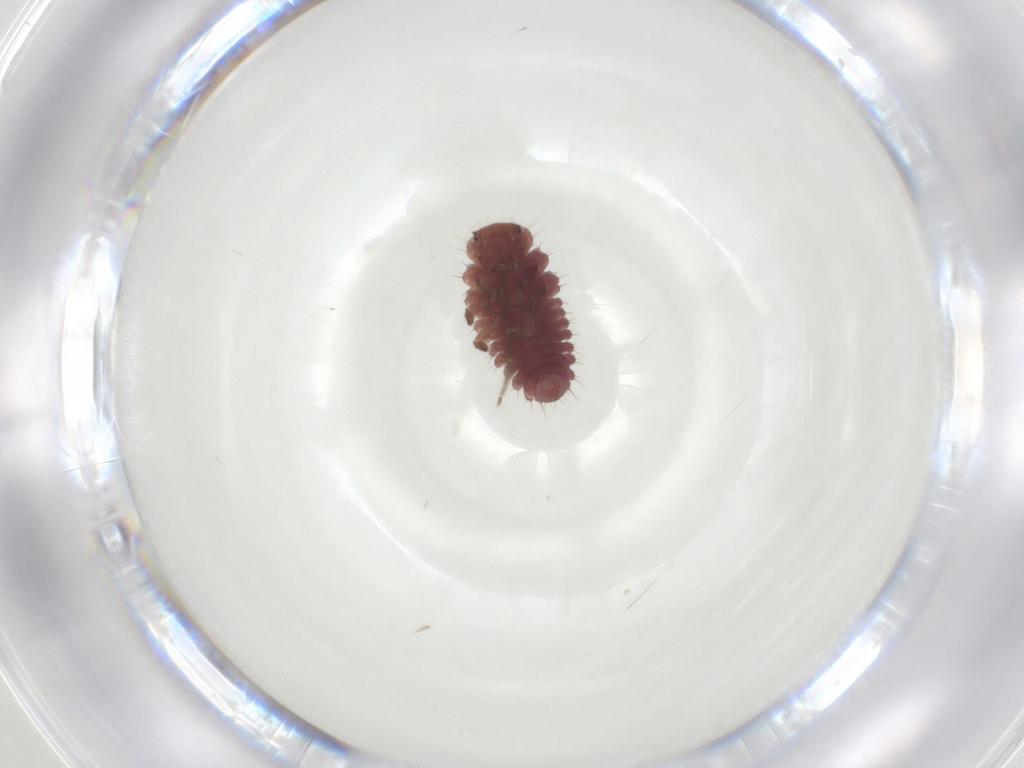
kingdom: Animalia
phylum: Arthropoda
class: Insecta
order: Coleoptera
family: Coccinellidae
